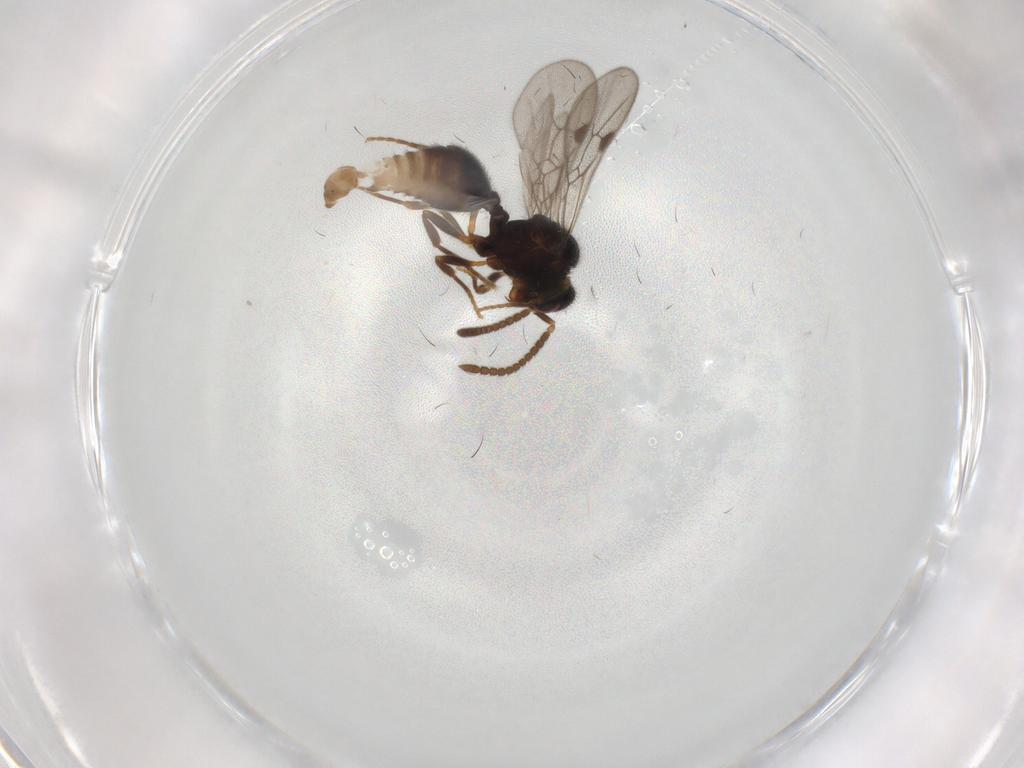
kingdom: Animalia
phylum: Arthropoda
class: Insecta
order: Hymenoptera
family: Formicidae
